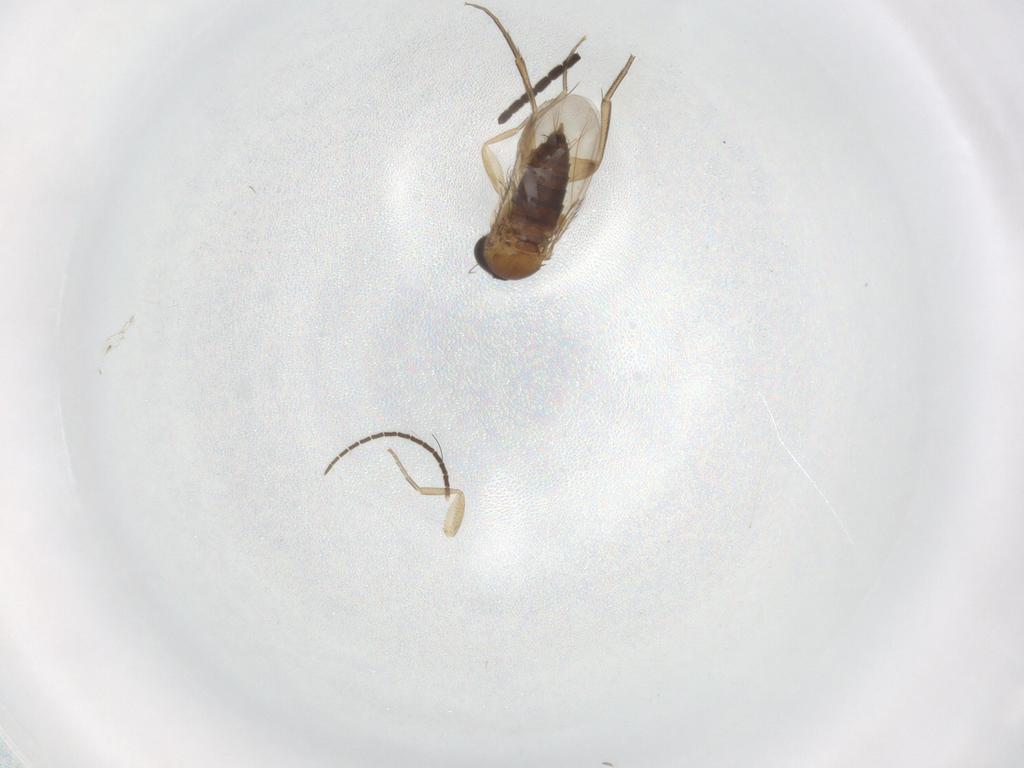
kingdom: Animalia
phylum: Arthropoda
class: Insecta
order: Diptera
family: Sciaridae
